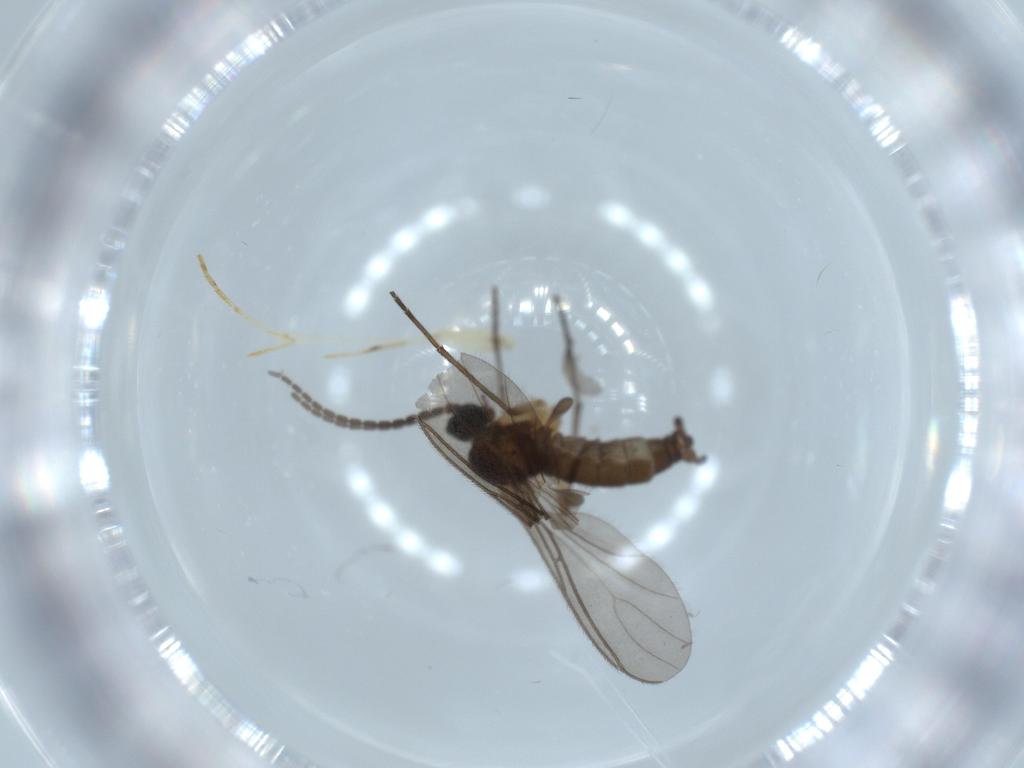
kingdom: Animalia
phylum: Arthropoda
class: Insecta
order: Diptera
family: Sciaridae
